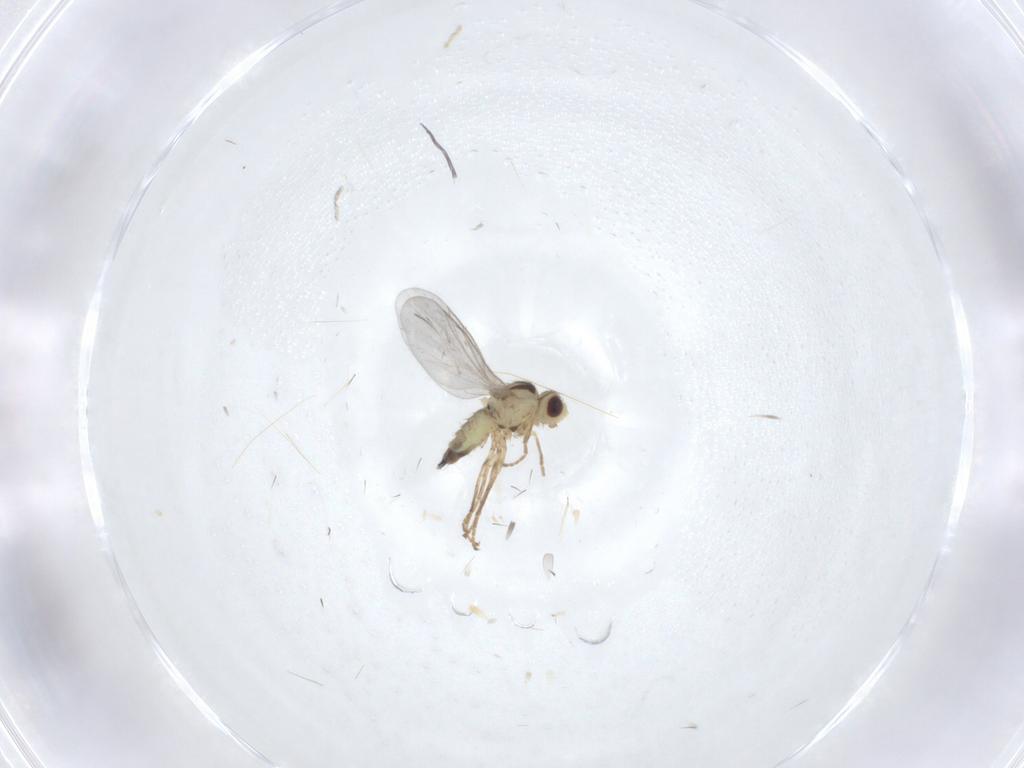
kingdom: Animalia
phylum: Arthropoda
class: Insecta
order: Diptera
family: Agromyzidae
